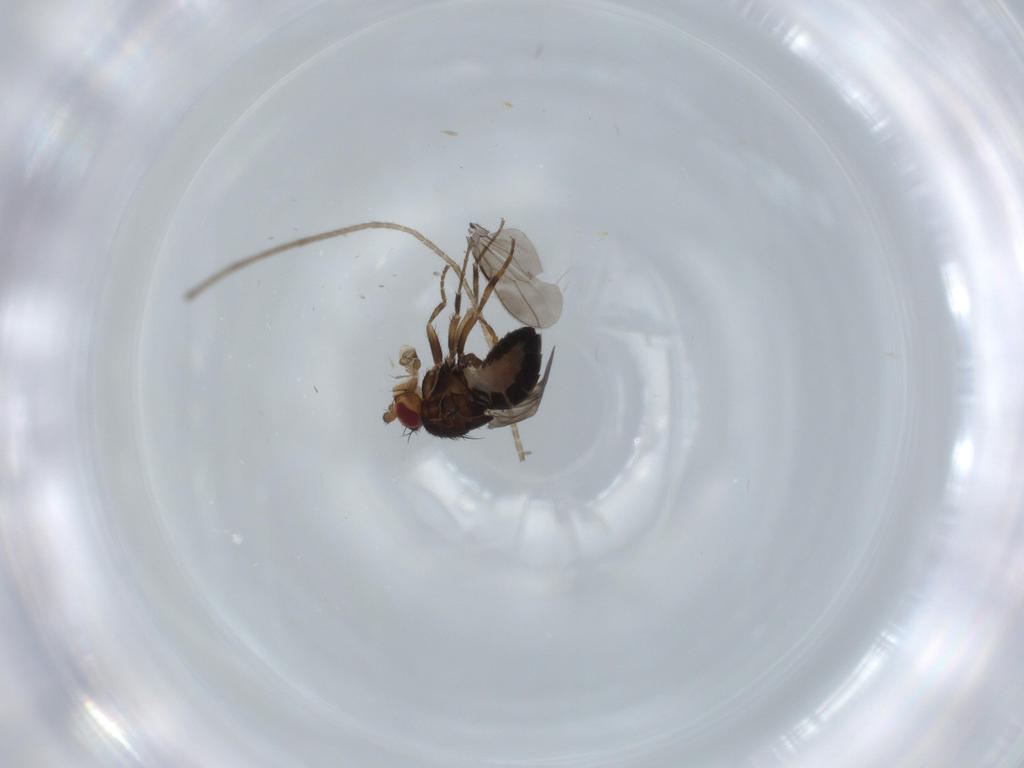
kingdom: Animalia
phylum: Arthropoda
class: Insecta
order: Diptera
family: Sphaeroceridae
